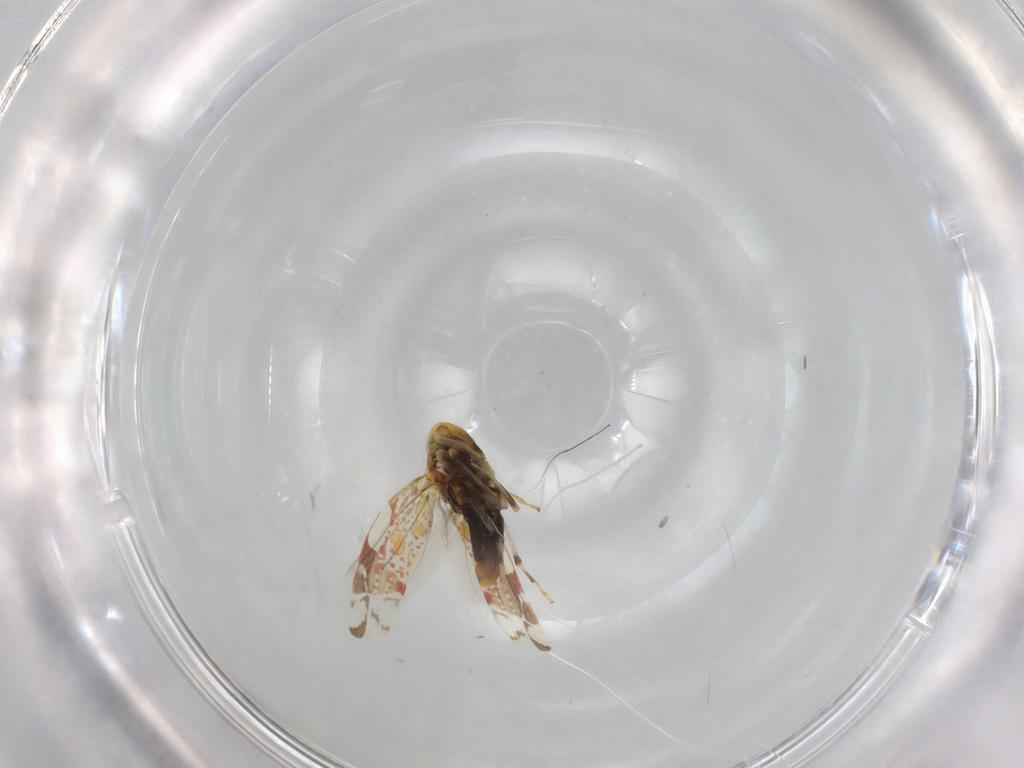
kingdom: Animalia
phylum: Arthropoda
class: Insecta
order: Hemiptera
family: Cicadellidae
